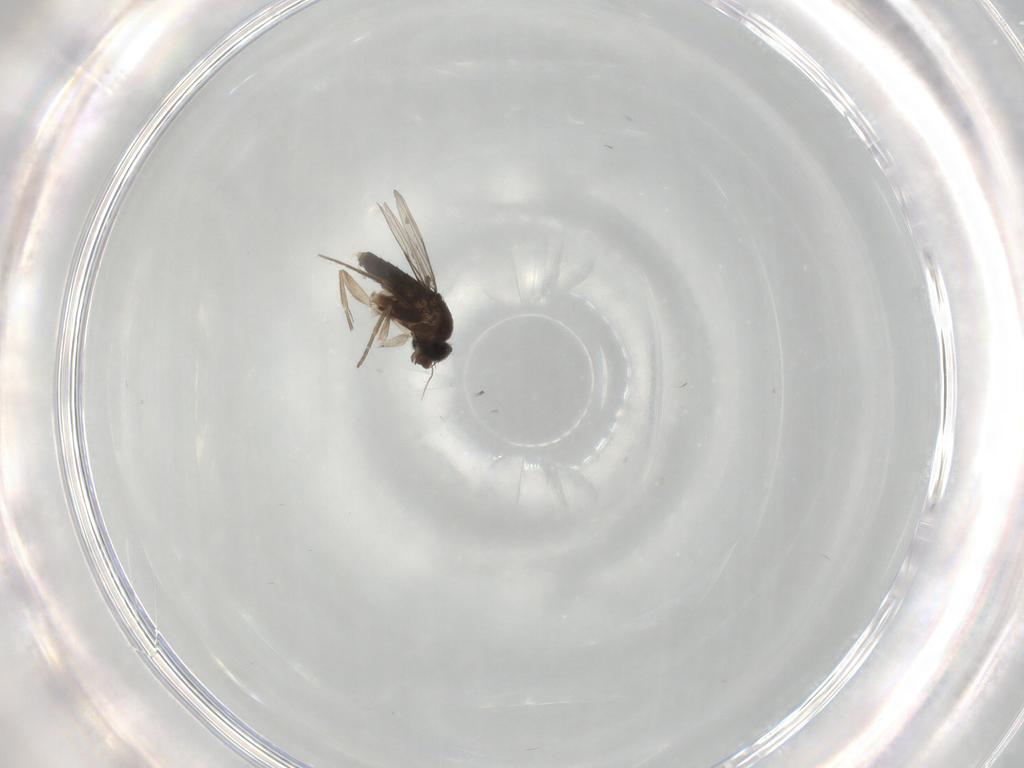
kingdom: Animalia
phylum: Arthropoda
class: Insecta
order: Diptera
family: Phoridae
